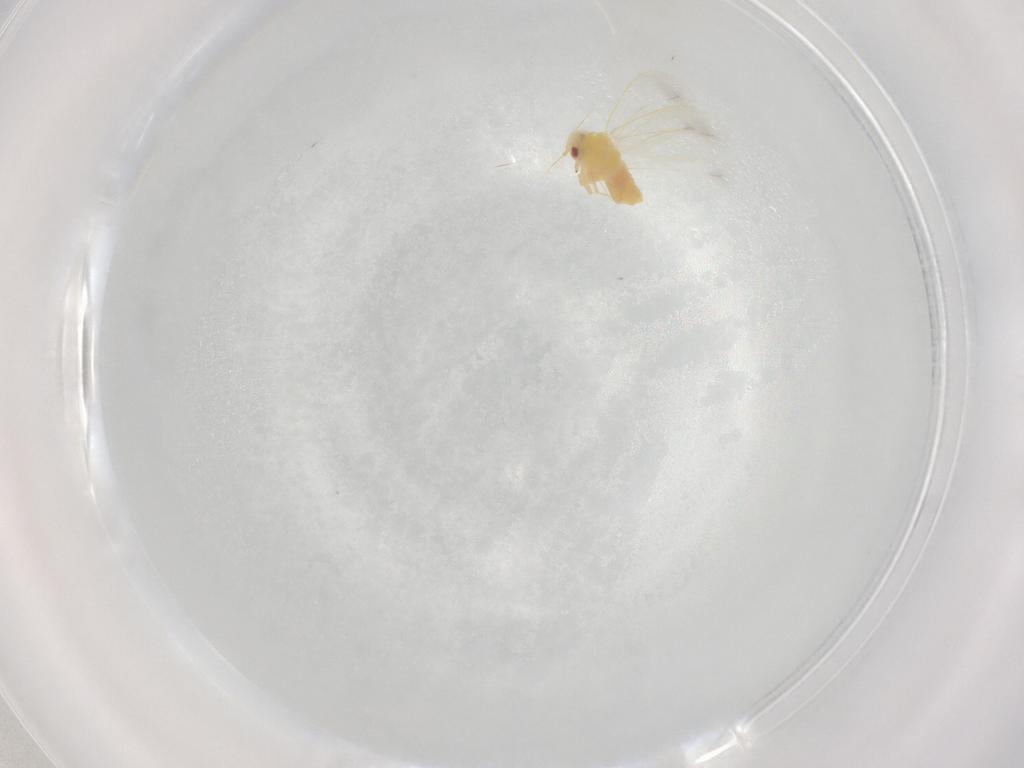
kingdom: Animalia
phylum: Arthropoda
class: Insecta
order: Hemiptera
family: Aleyrodidae
